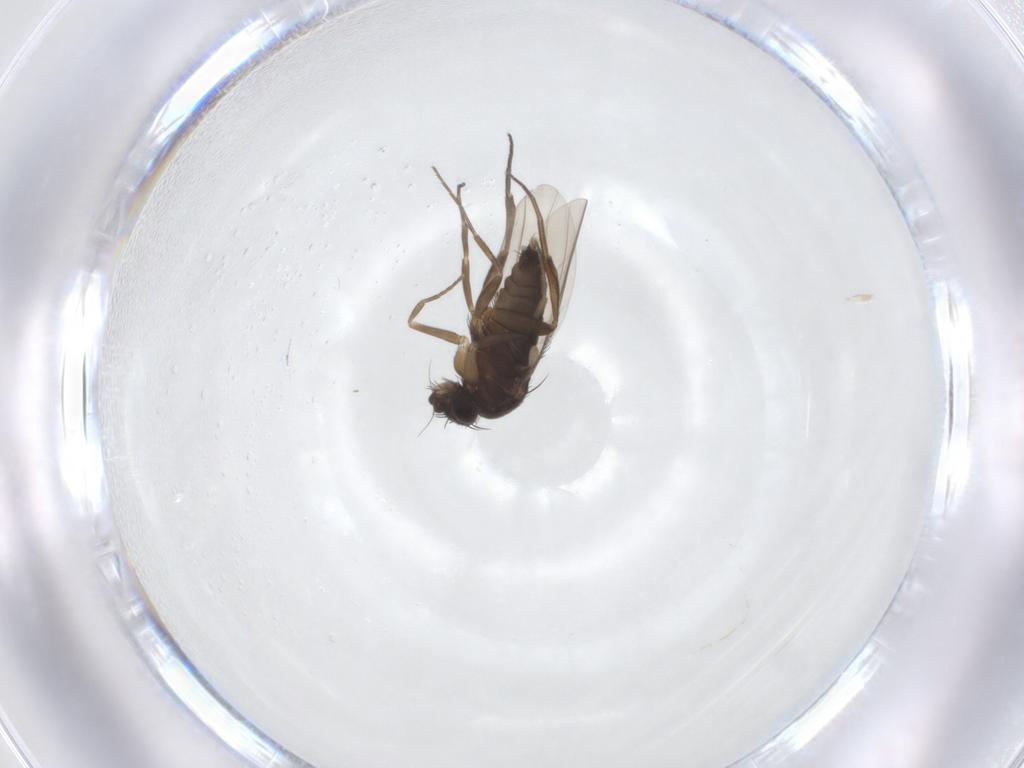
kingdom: Animalia
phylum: Arthropoda
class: Insecta
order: Diptera
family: Phoridae
